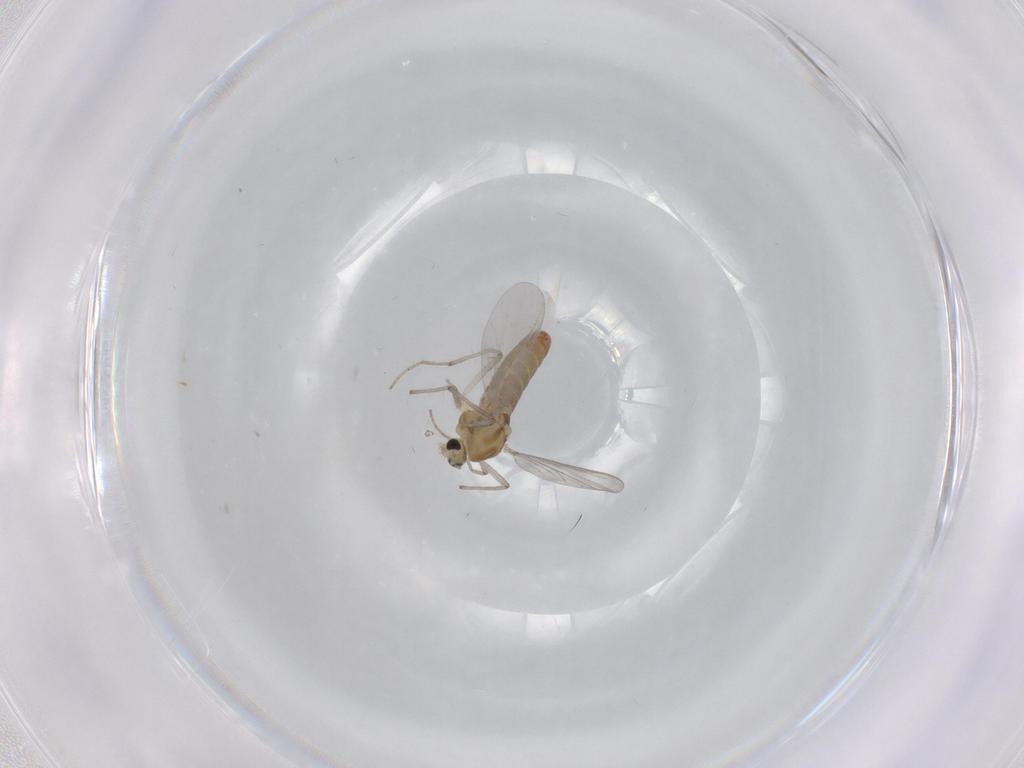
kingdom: Animalia
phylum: Arthropoda
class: Insecta
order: Diptera
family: Chironomidae
